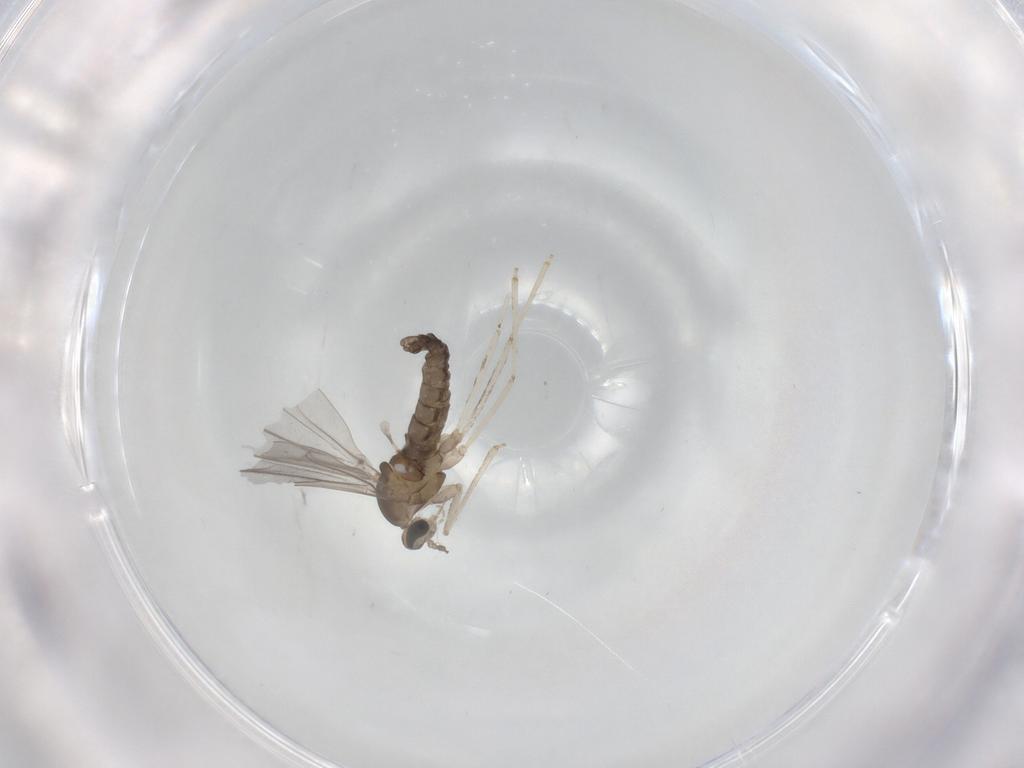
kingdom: Animalia
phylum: Arthropoda
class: Insecta
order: Diptera
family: Cecidomyiidae
